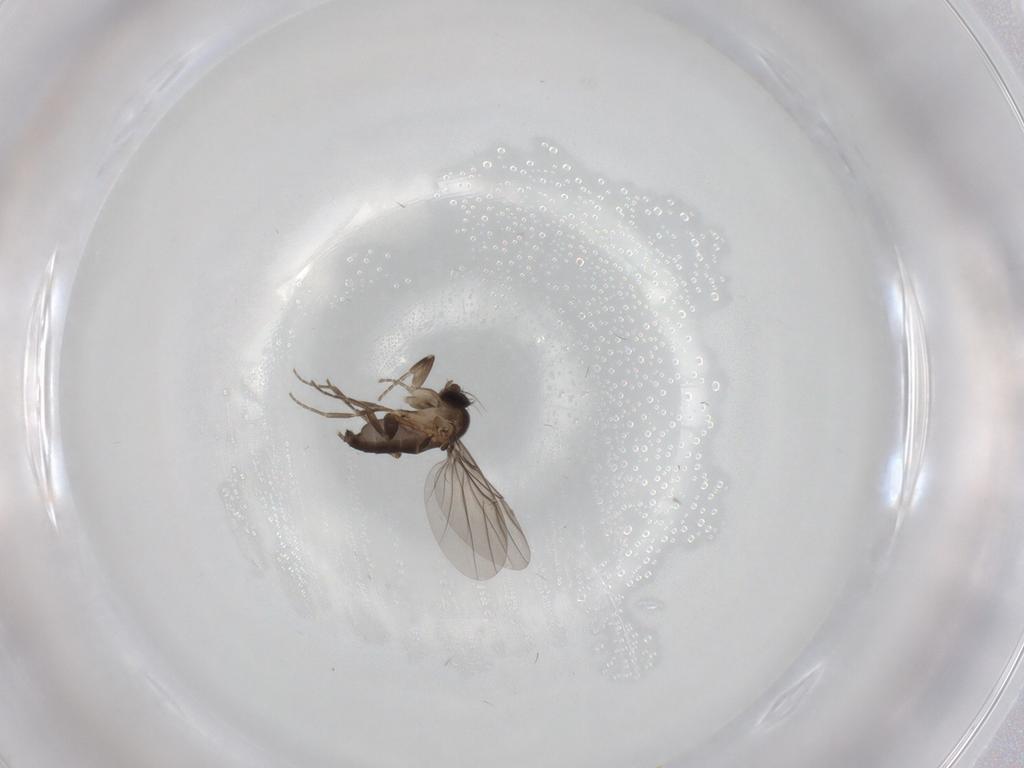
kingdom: Animalia
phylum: Arthropoda
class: Insecta
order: Diptera
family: Phoridae
